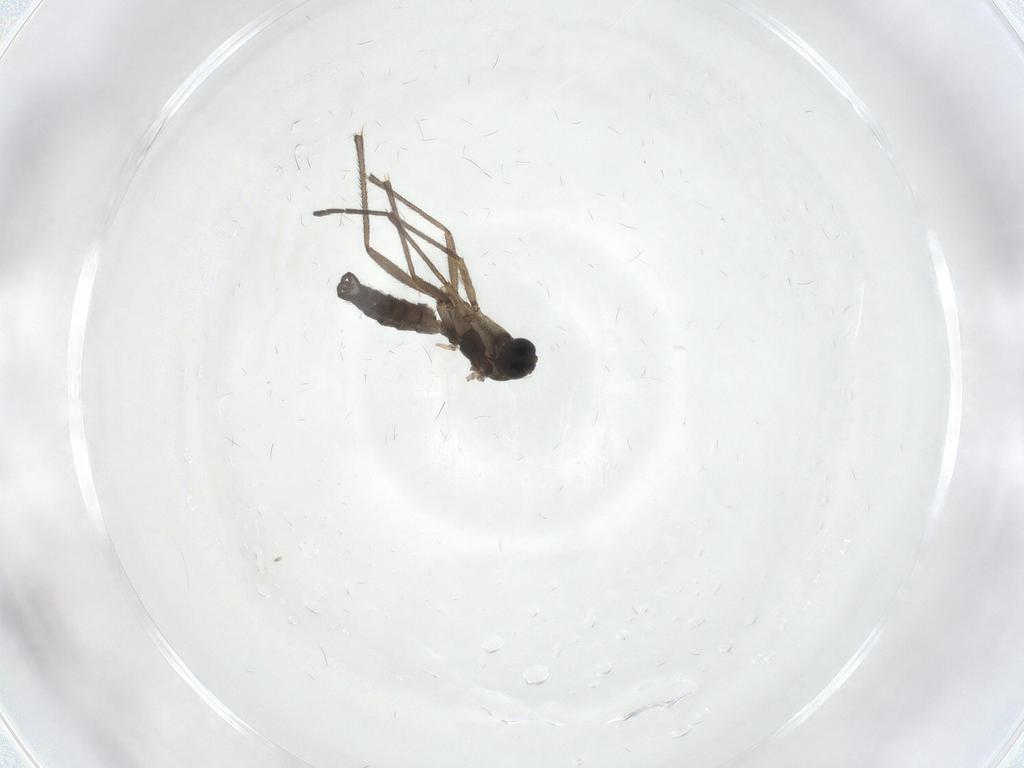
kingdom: Animalia
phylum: Arthropoda
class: Insecta
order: Diptera
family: Sciaridae
